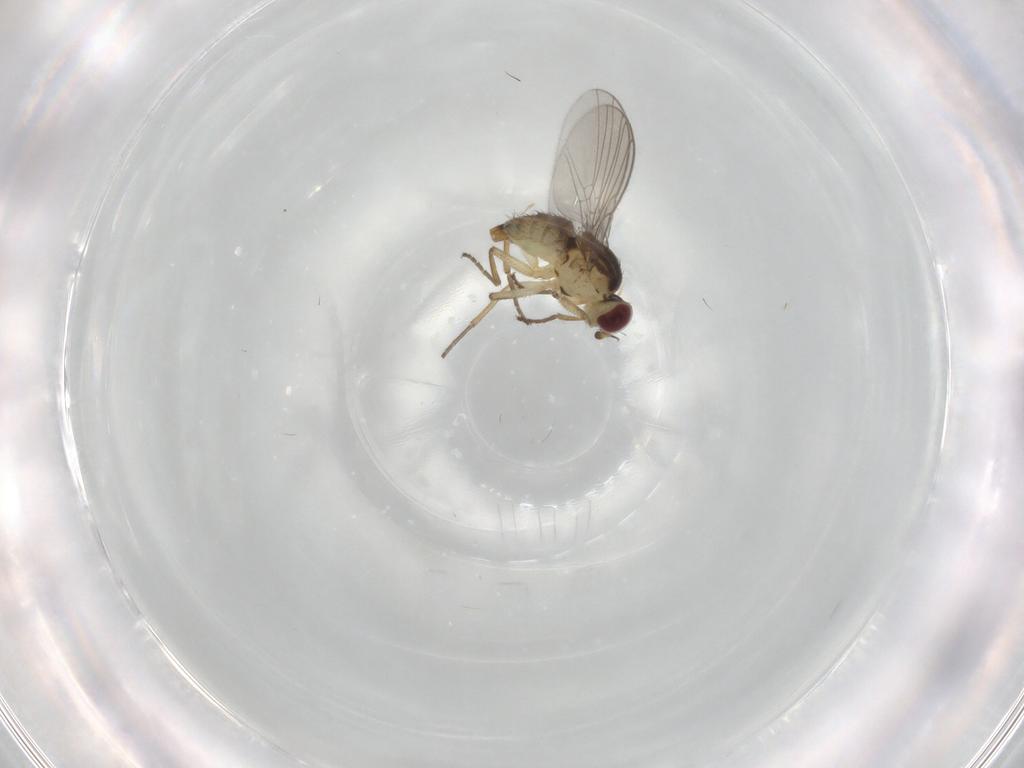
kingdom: Animalia
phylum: Arthropoda
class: Insecta
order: Diptera
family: Agromyzidae
